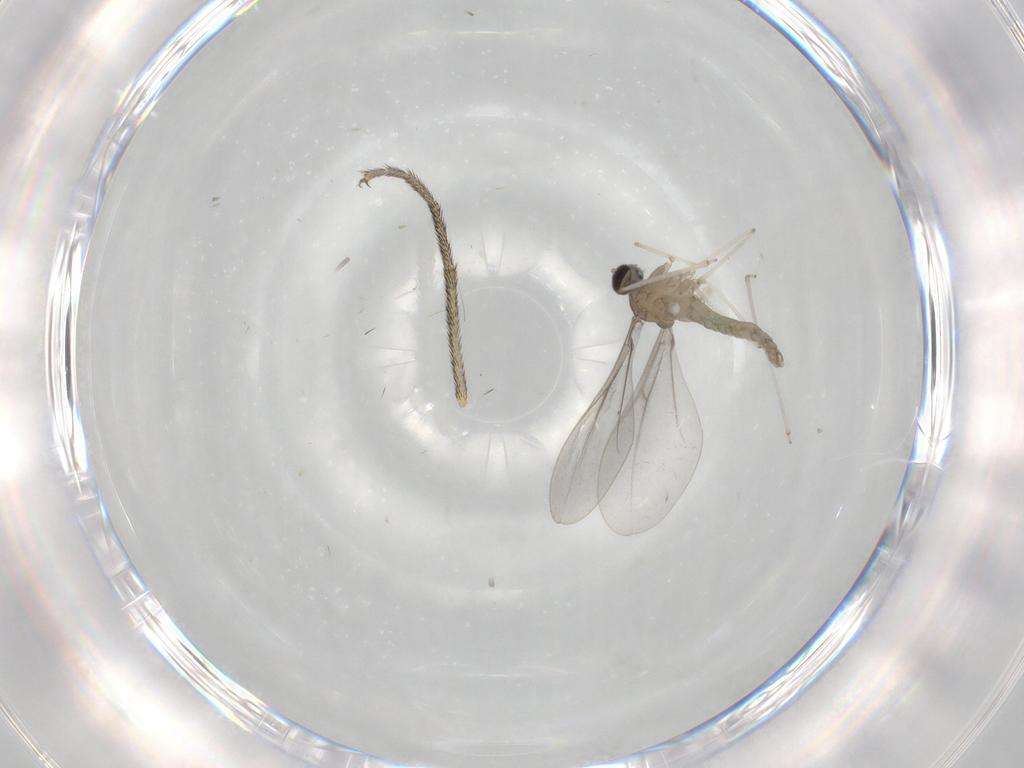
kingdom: Animalia
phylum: Arthropoda
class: Insecta
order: Diptera
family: Cecidomyiidae
